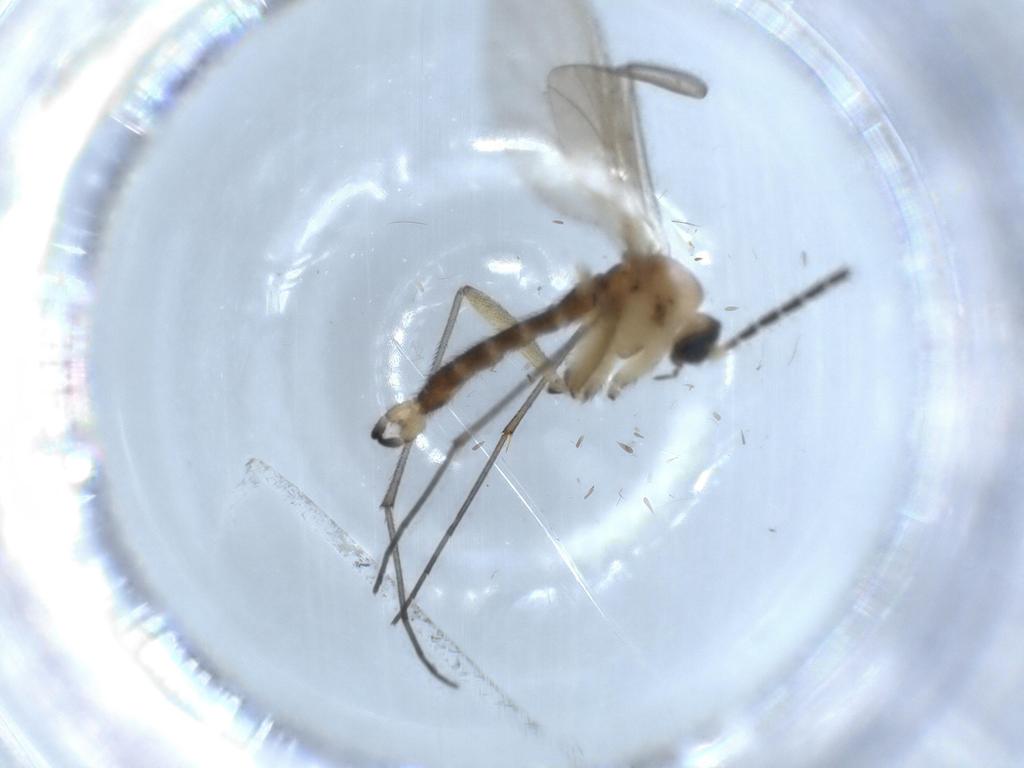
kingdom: Animalia
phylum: Arthropoda
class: Insecta
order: Diptera
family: Sciaridae
